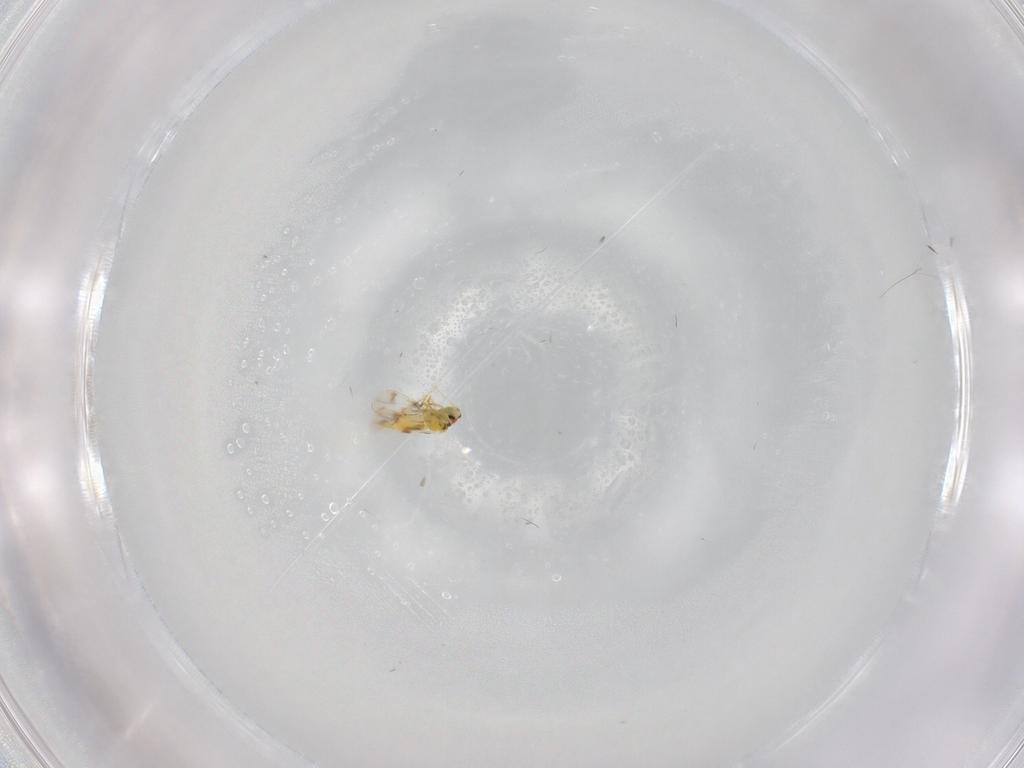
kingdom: Animalia
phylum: Arthropoda
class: Insecta
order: Hemiptera
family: Aleyrodidae
